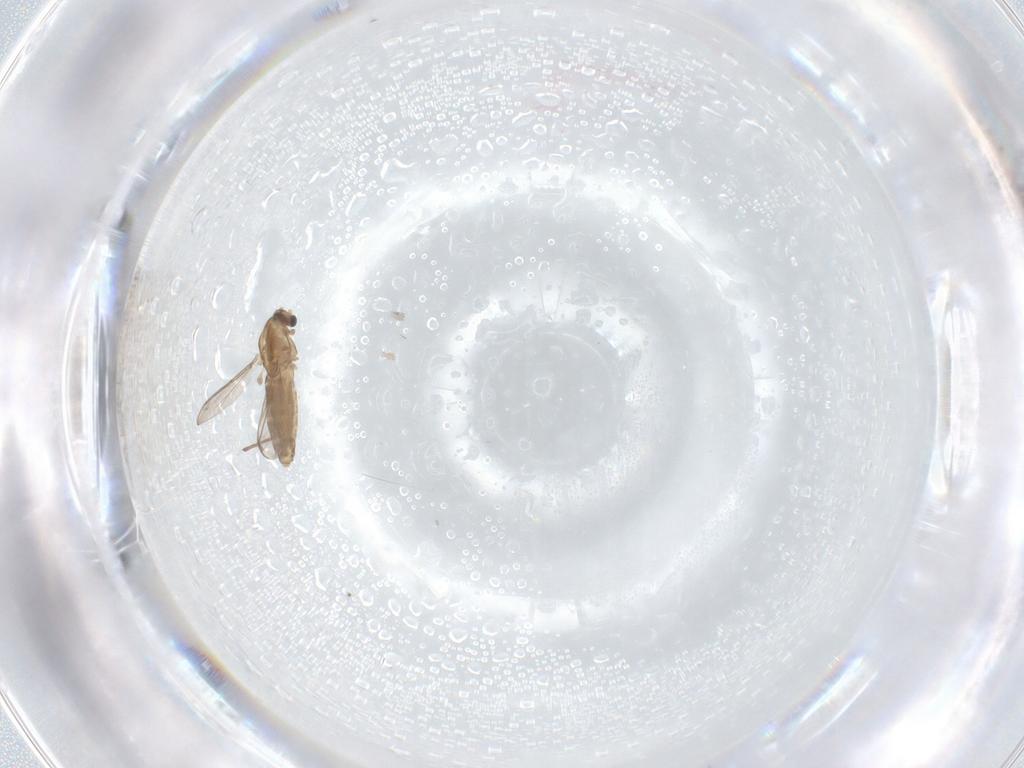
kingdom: Animalia
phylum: Arthropoda
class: Insecta
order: Diptera
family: Chironomidae
